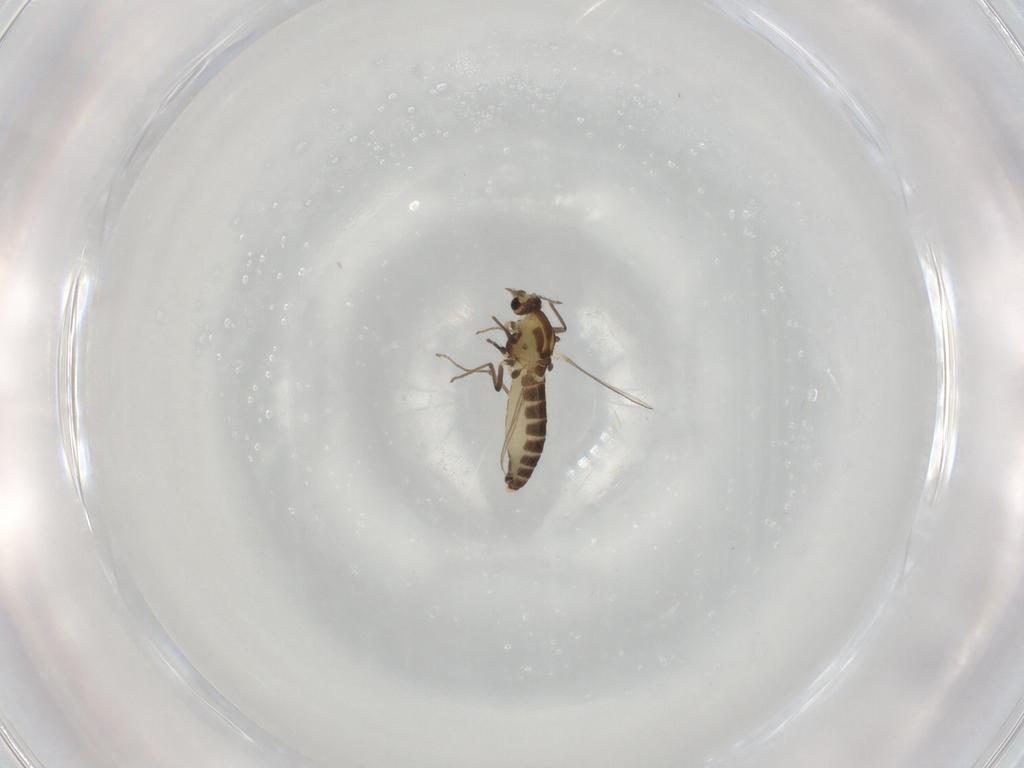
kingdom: Animalia
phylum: Arthropoda
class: Insecta
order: Diptera
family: Chironomidae
